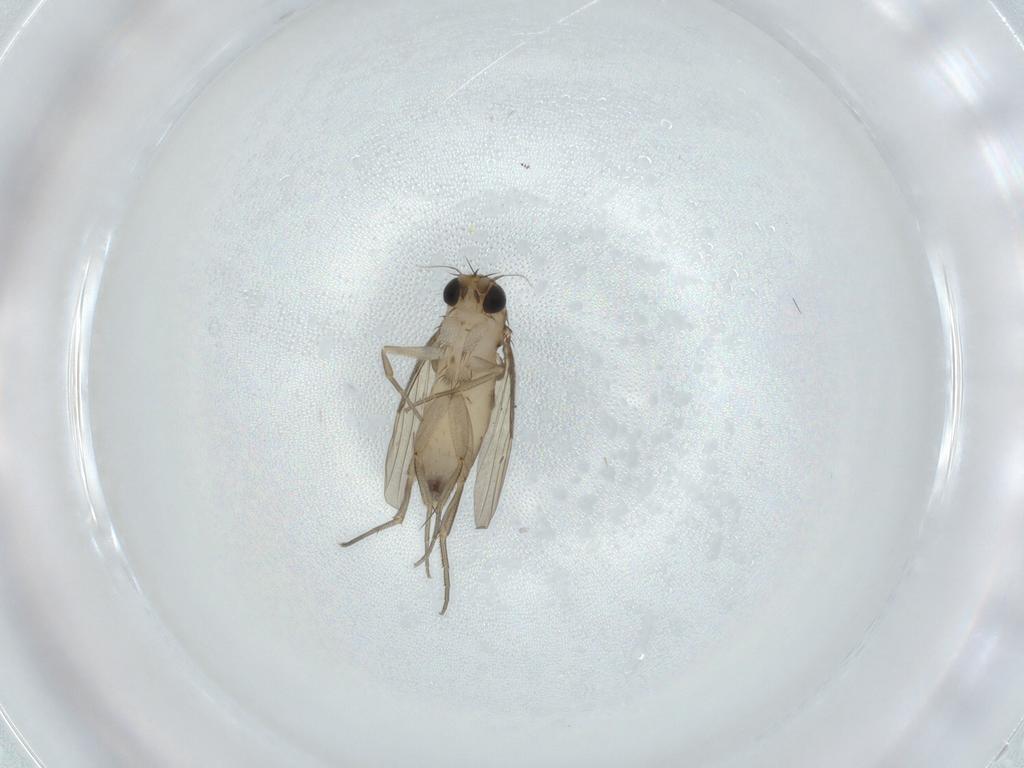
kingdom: Animalia
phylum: Arthropoda
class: Insecta
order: Diptera
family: Phoridae
